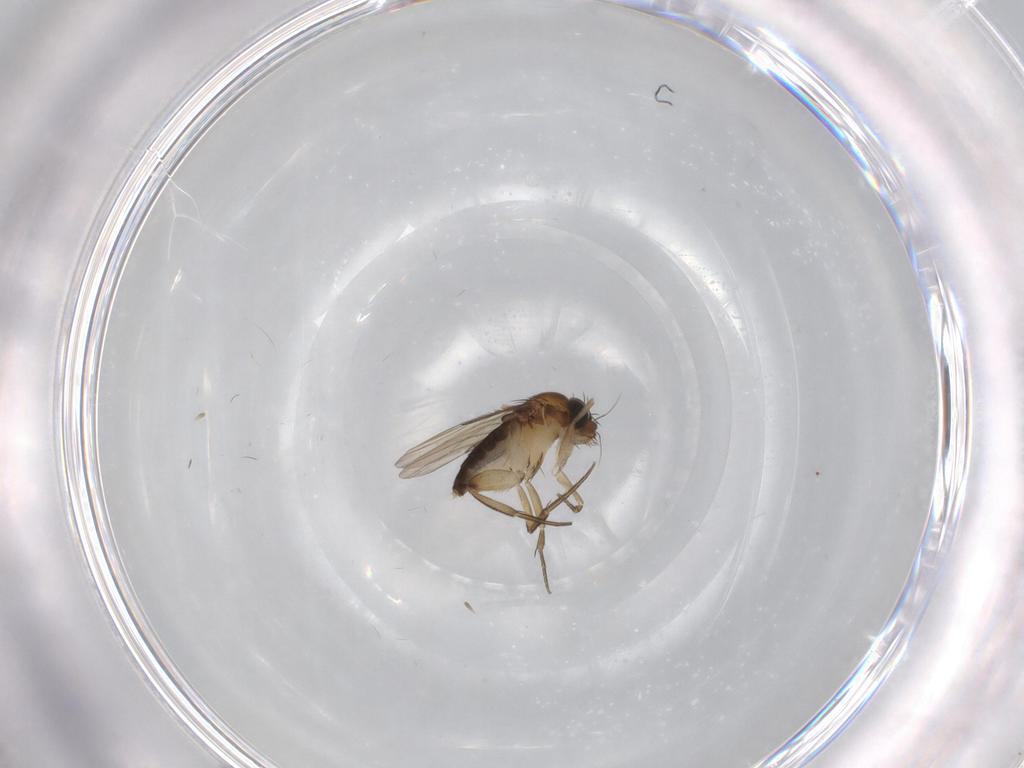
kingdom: Animalia
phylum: Arthropoda
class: Insecta
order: Diptera
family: Phoridae
